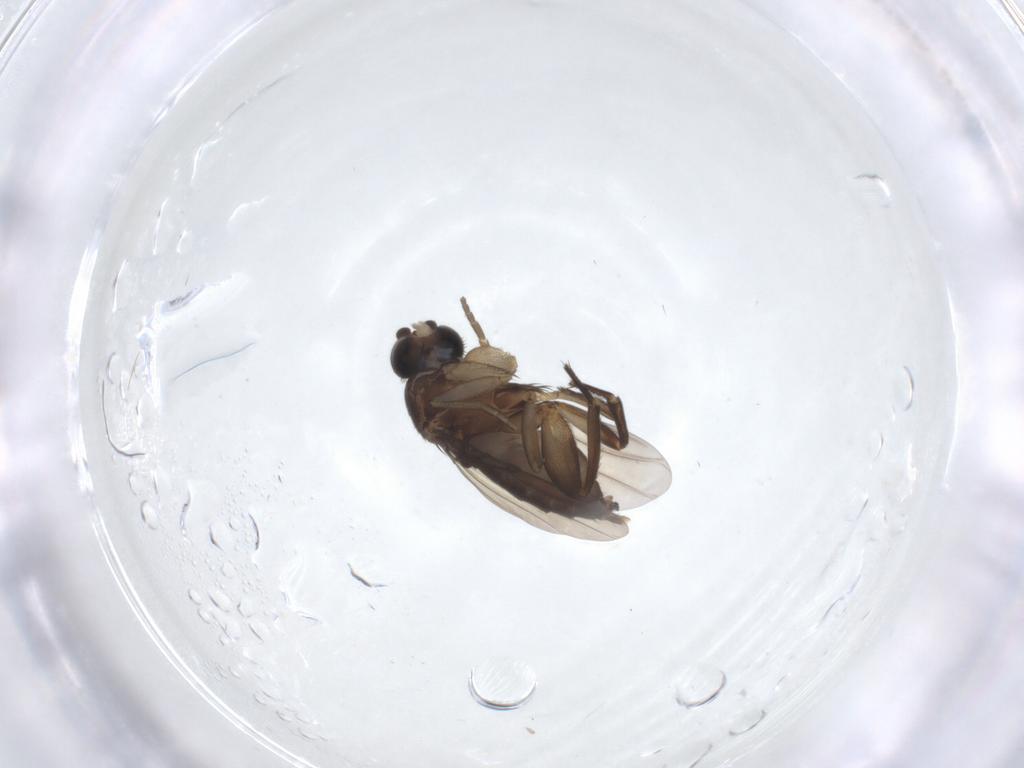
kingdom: Animalia
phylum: Arthropoda
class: Insecta
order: Diptera
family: Phoridae
